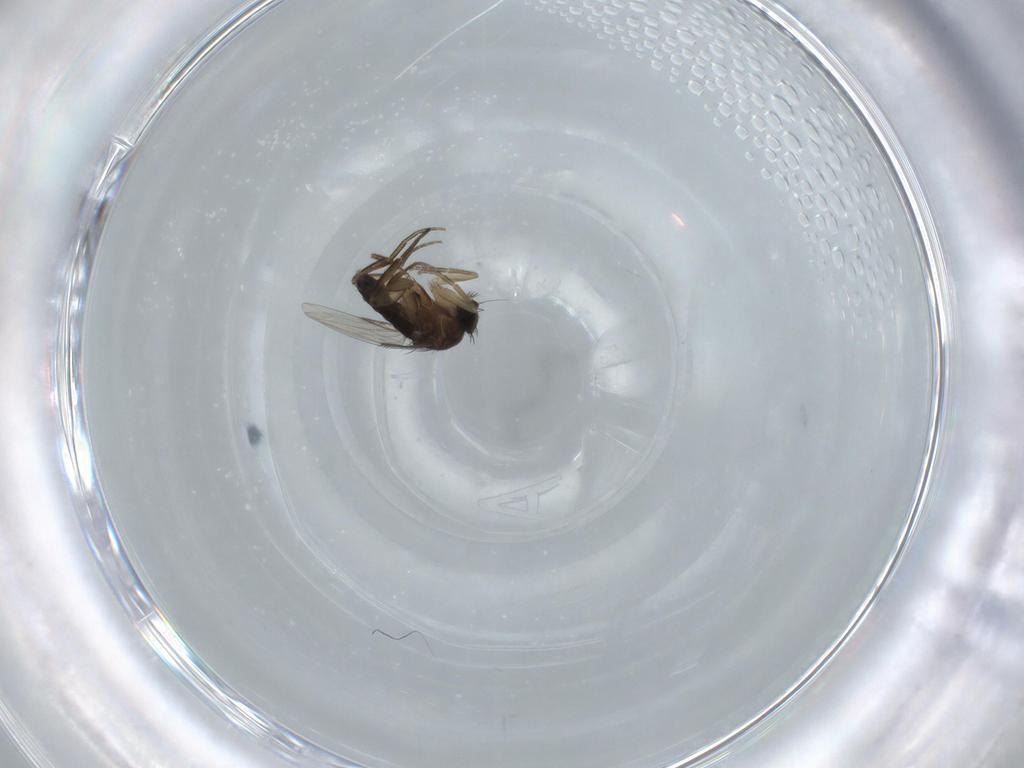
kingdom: Animalia
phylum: Arthropoda
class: Insecta
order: Diptera
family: Phoridae
